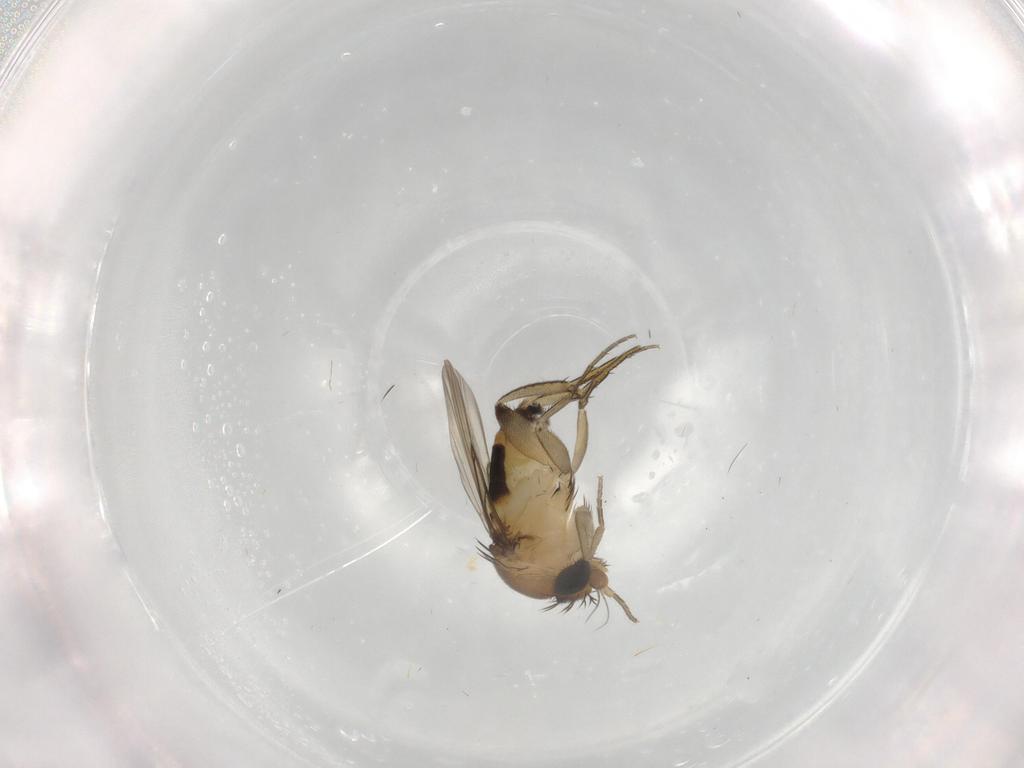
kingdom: Animalia
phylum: Arthropoda
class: Insecta
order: Diptera
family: Phoridae
